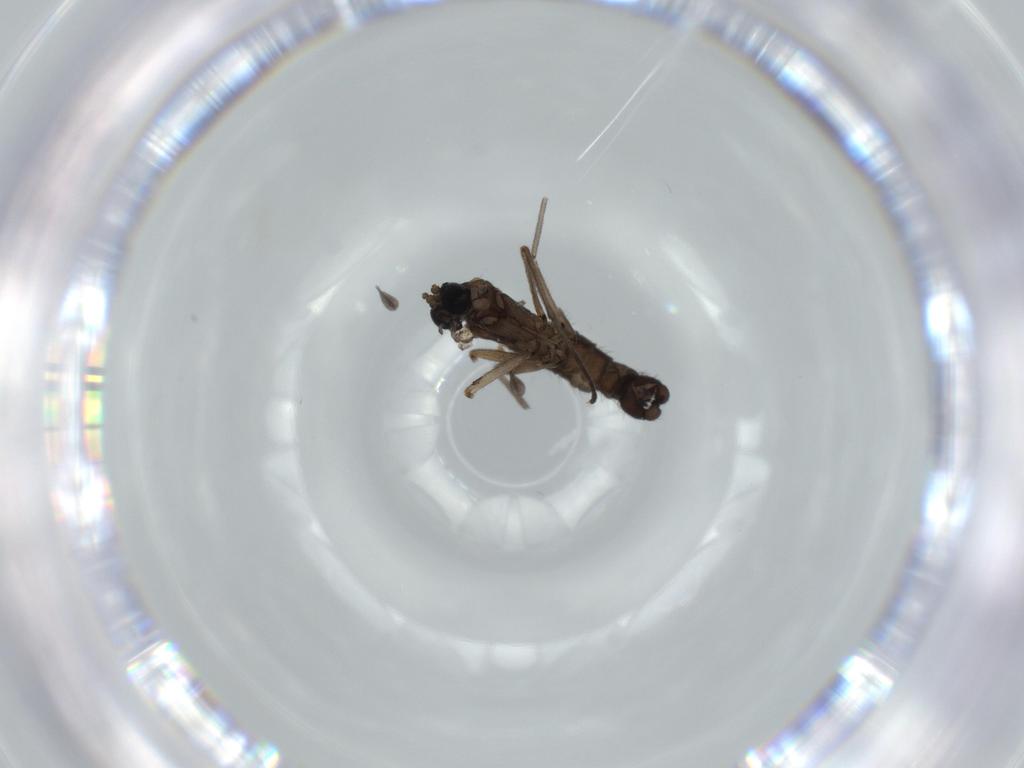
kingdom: Animalia
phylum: Arthropoda
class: Insecta
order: Diptera
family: Sciaridae
